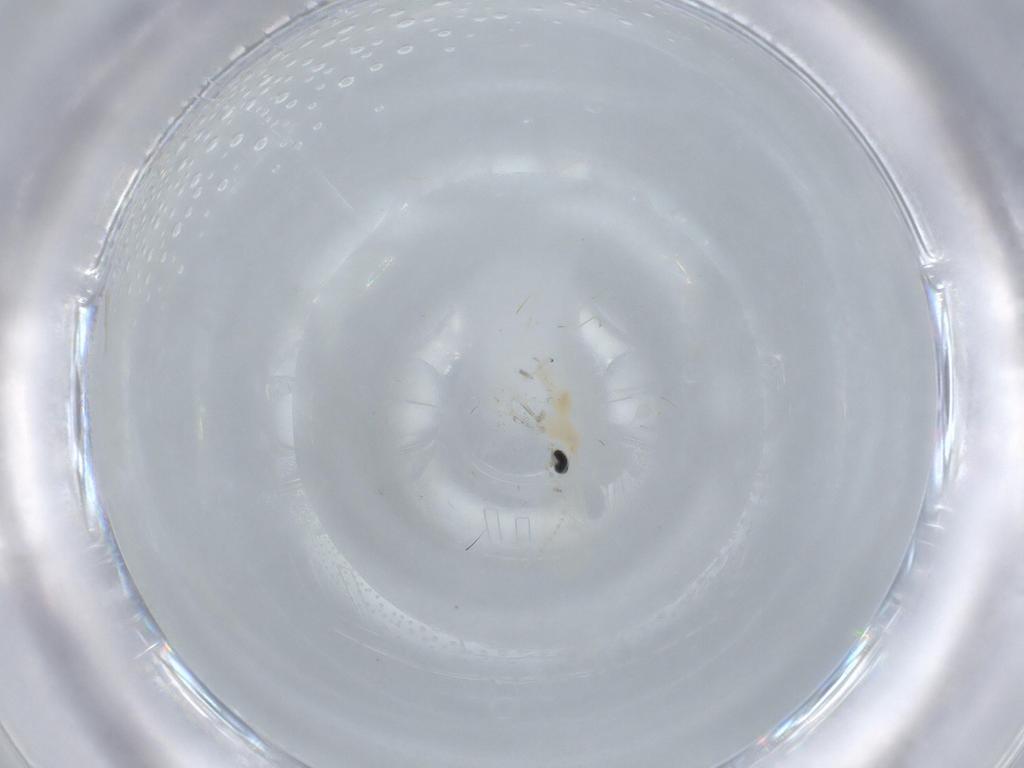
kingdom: Animalia
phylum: Arthropoda
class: Insecta
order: Diptera
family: Cecidomyiidae
